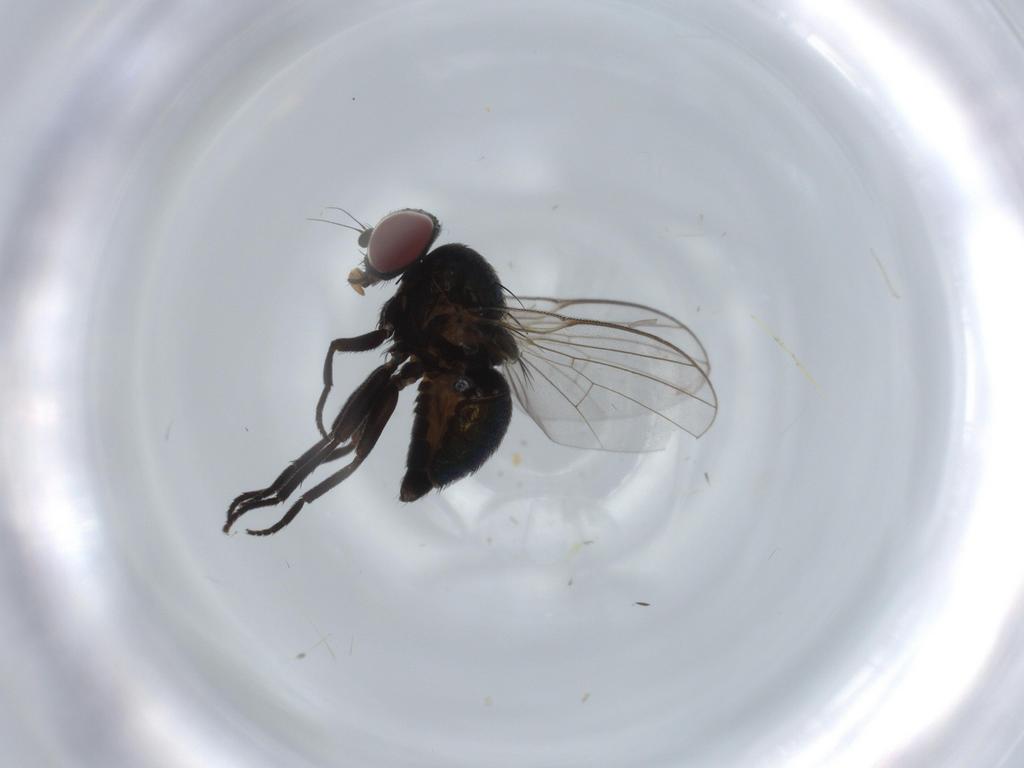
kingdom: Animalia
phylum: Arthropoda
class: Insecta
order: Diptera
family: Agromyzidae
